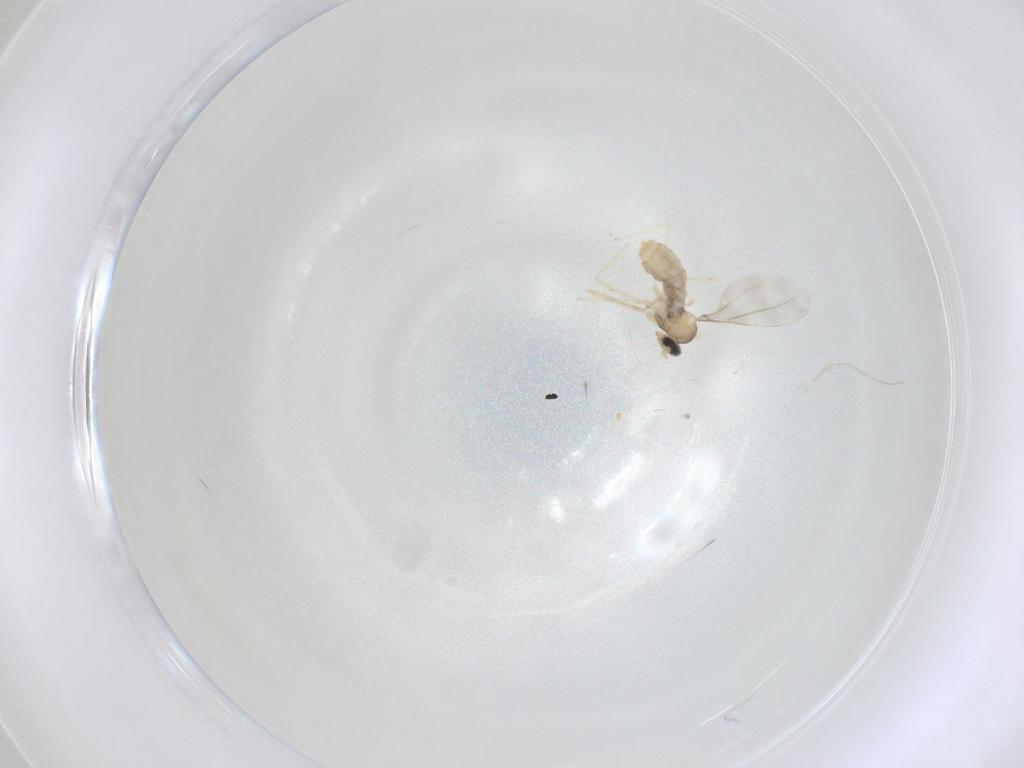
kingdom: Animalia
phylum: Arthropoda
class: Insecta
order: Diptera
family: Cecidomyiidae
